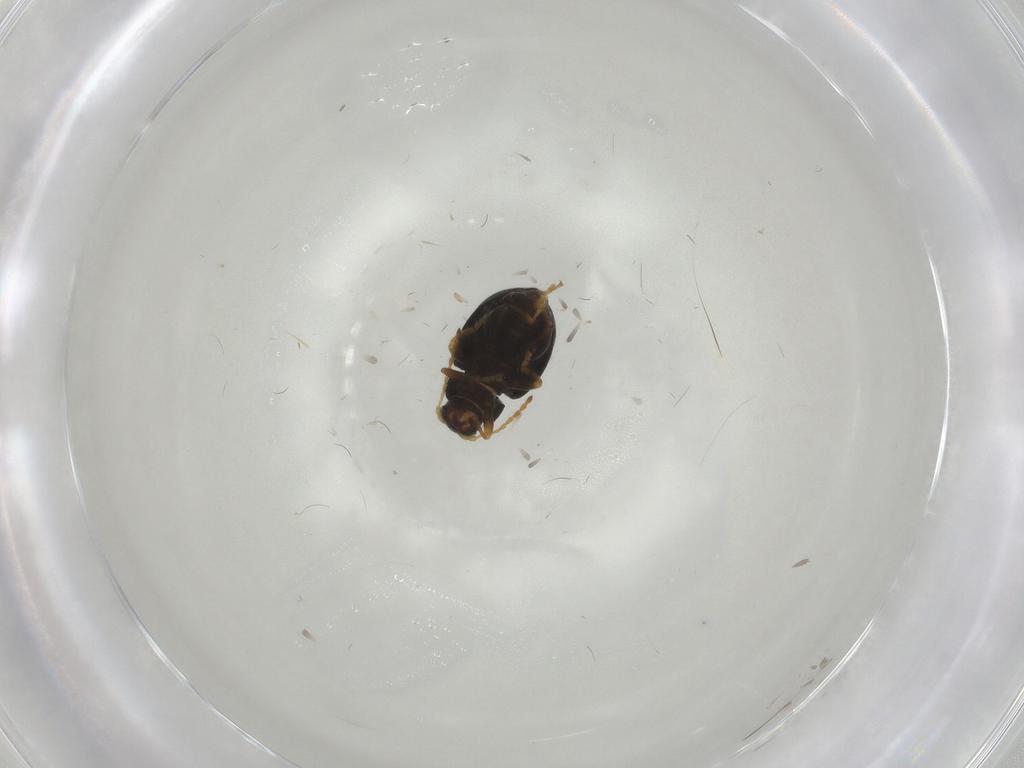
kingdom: Animalia
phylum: Arthropoda
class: Insecta
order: Coleoptera
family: Chrysomelidae
